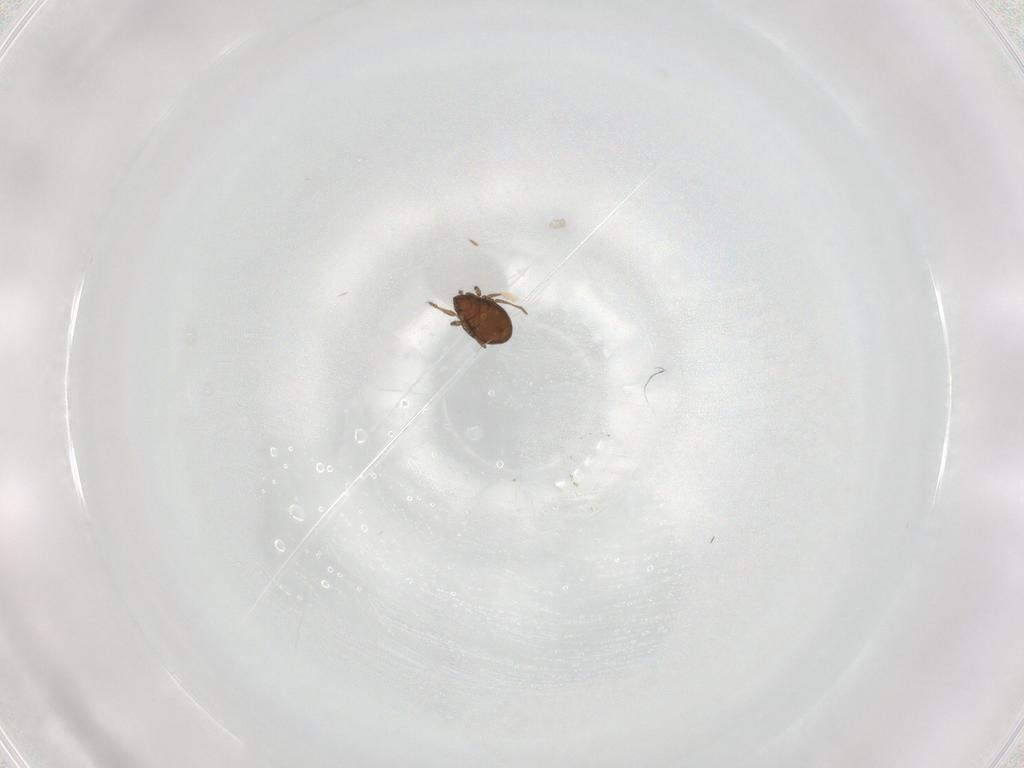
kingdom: Animalia
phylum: Arthropoda
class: Arachnida
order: Sarcoptiformes
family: Oribatulidae
